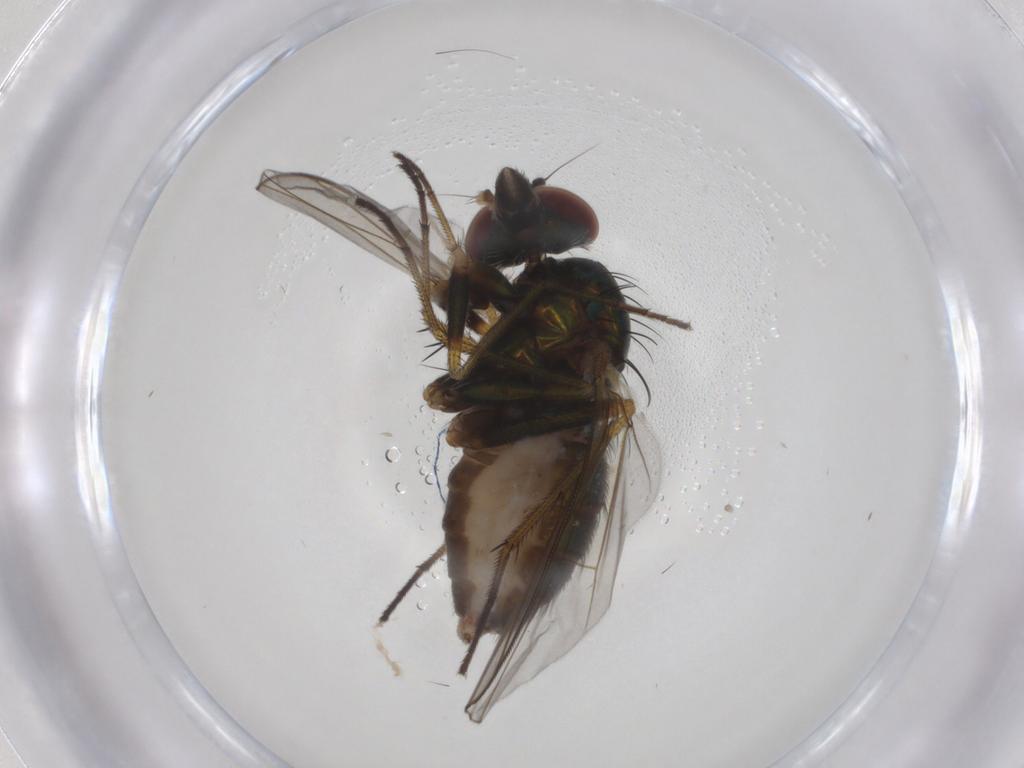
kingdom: Animalia
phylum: Arthropoda
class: Insecta
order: Diptera
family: Dolichopodidae
